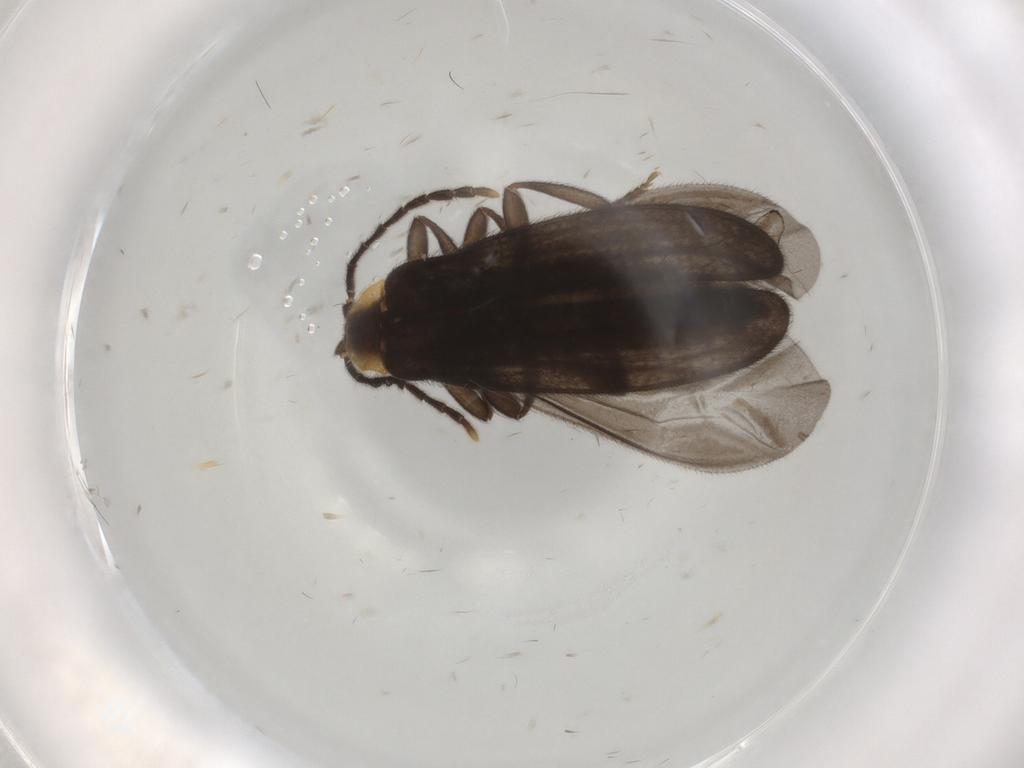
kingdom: Animalia
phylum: Arthropoda
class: Insecta
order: Coleoptera
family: Lycidae
